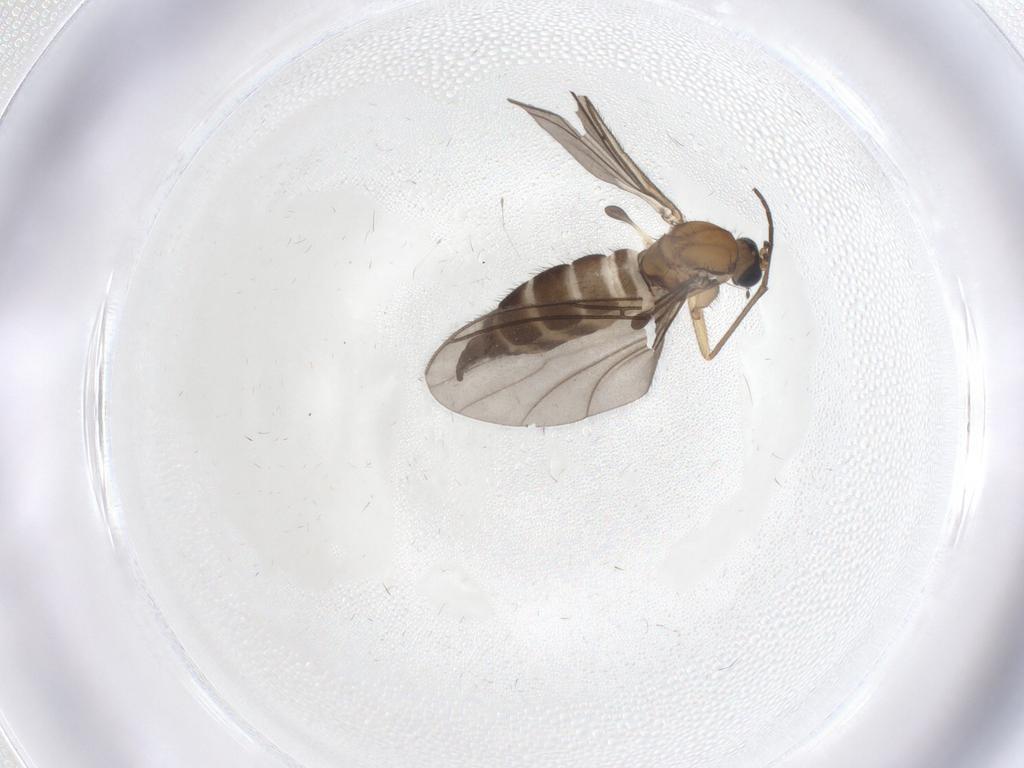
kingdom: Animalia
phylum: Arthropoda
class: Insecta
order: Diptera
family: Sciaridae
